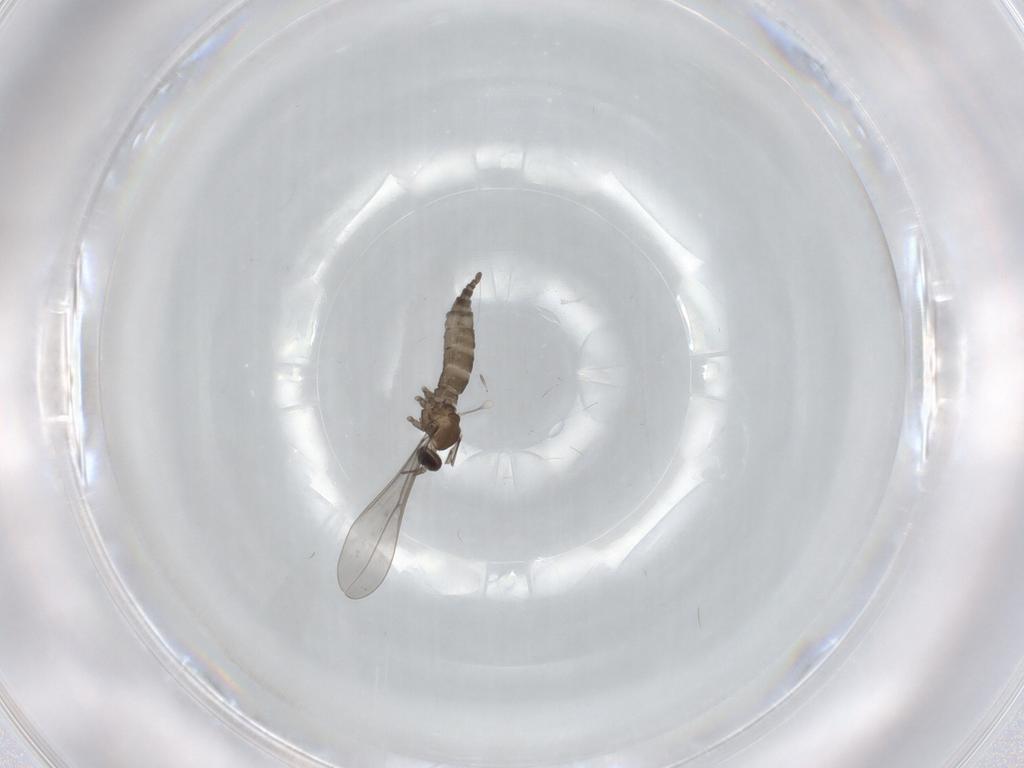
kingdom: Animalia
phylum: Arthropoda
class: Insecta
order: Diptera
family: Cecidomyiidae
